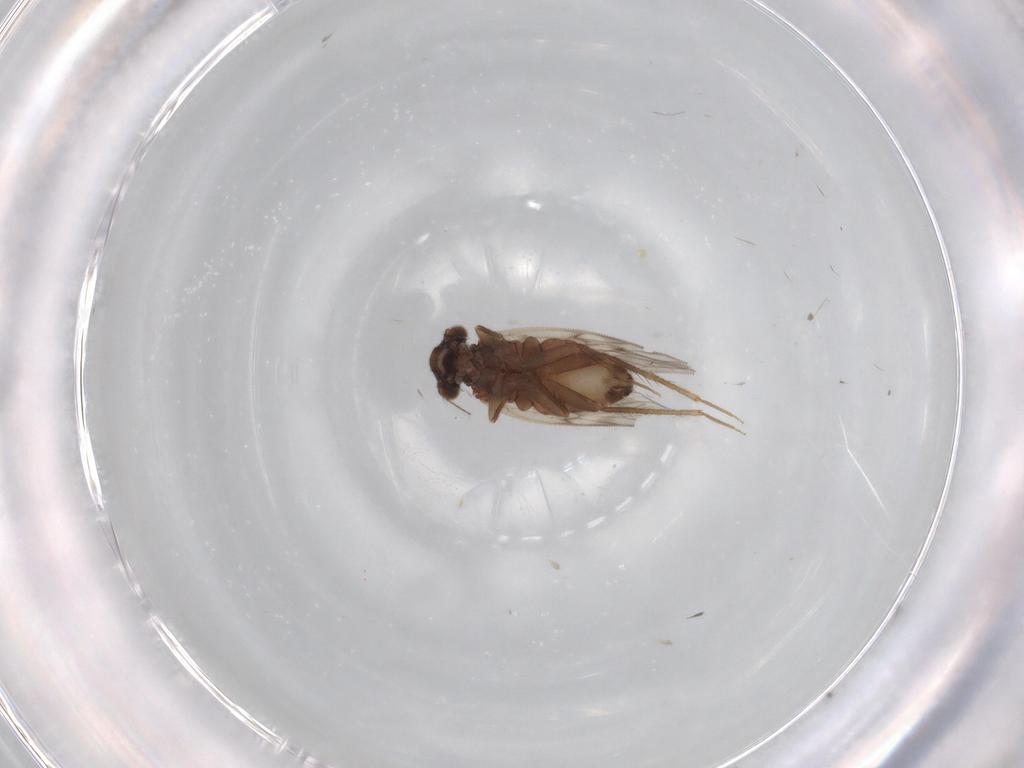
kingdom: Animalia
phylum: Arthropoda
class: Insecta
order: Psocodea
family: Lepidopsocidae
